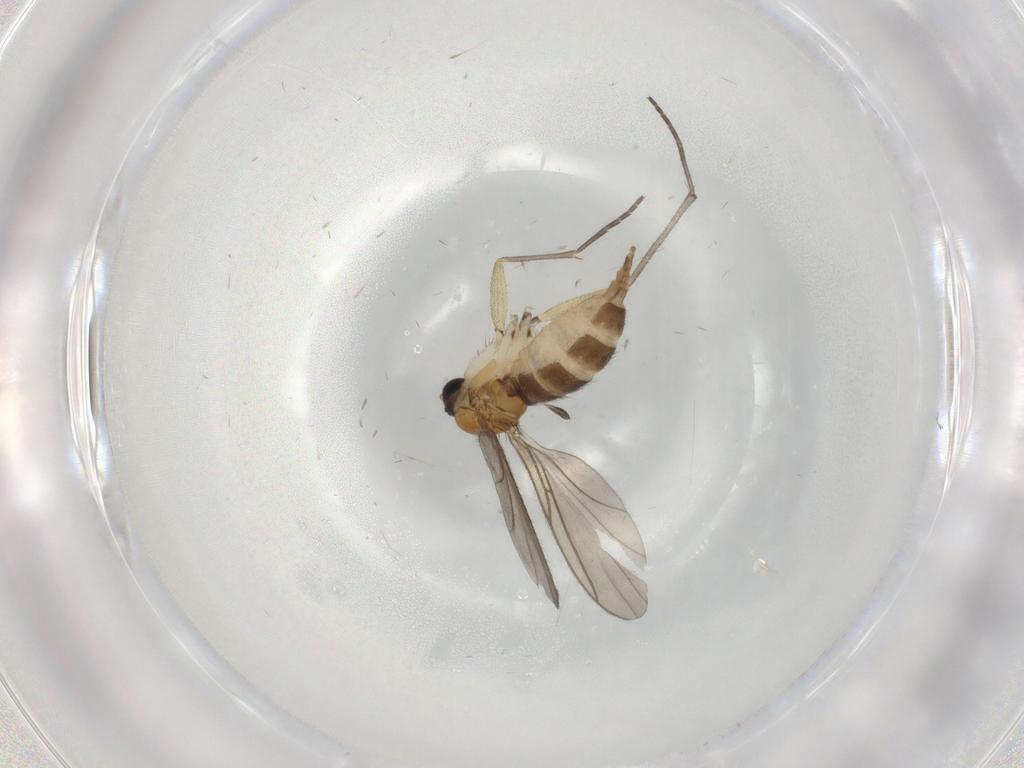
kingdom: Animalia
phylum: Arthropoda
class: Insecta
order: Diptera
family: Sciaridae
